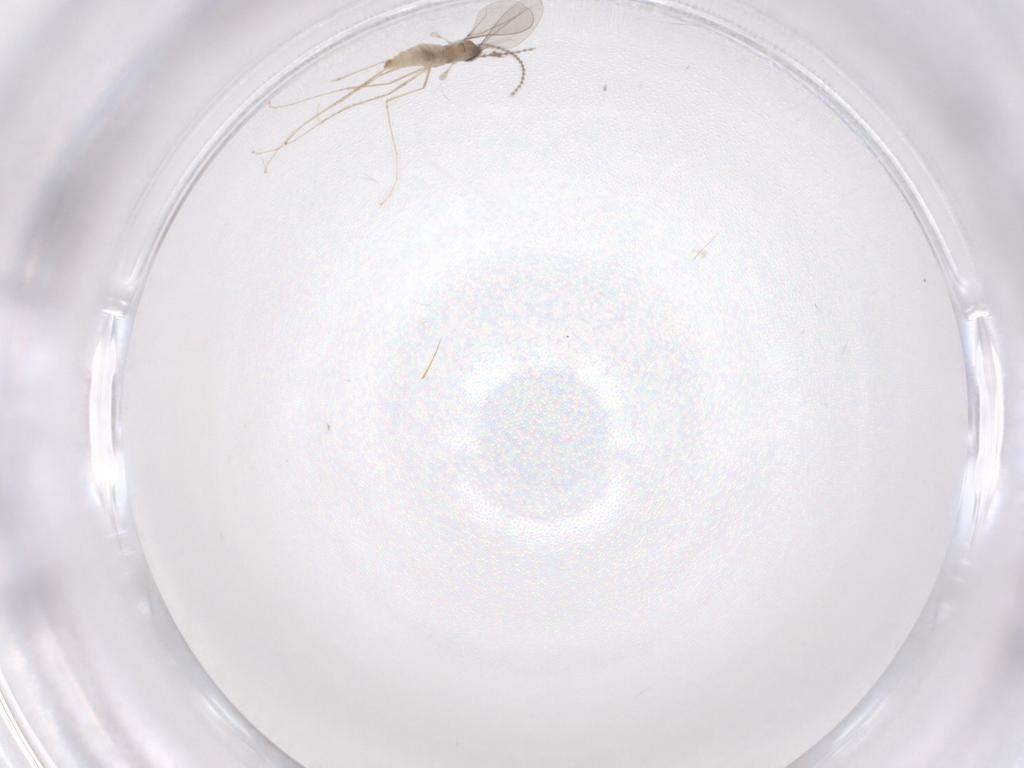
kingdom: Animalia
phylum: Arthropoda
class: Insecta
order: Diptera
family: Cecidomyiidae
